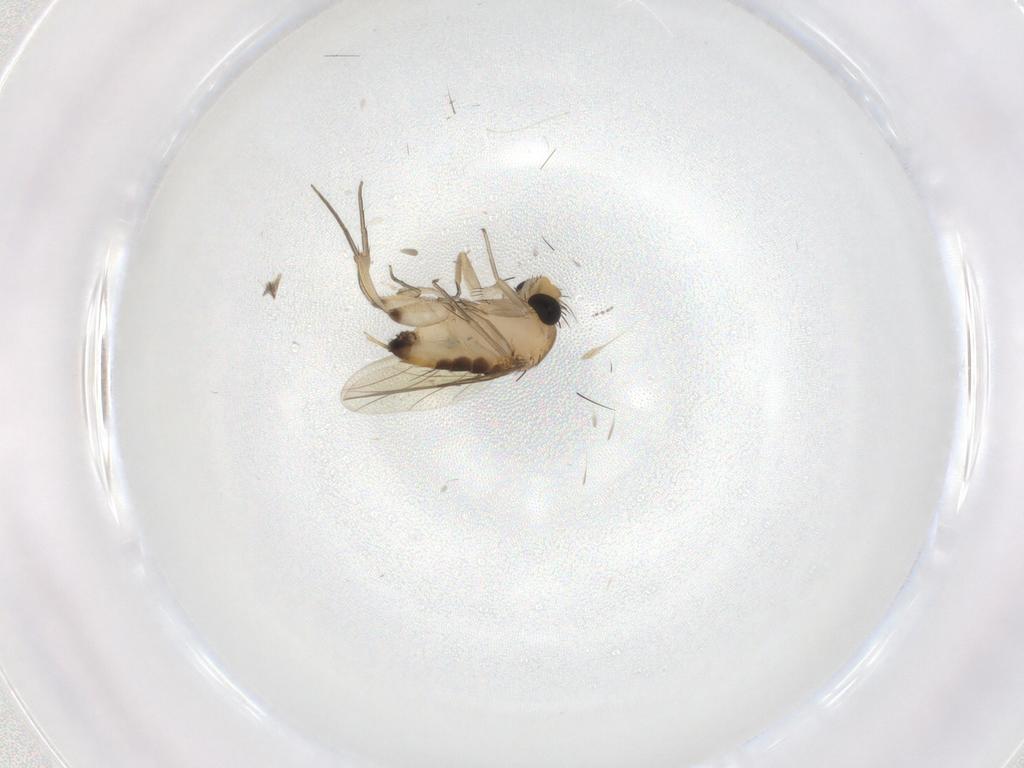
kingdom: Animalia
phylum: Arthropoda
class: Insecta
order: Diptera
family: Phoridae
